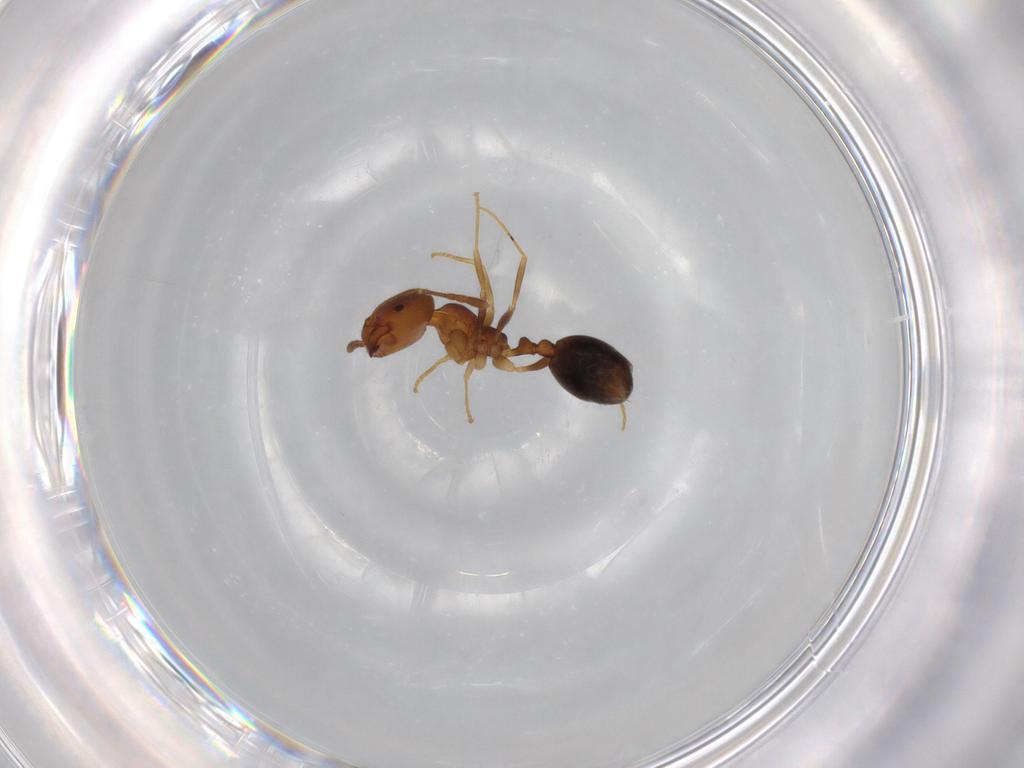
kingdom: Animalia
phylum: Arthropoda
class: Insecta
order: Hymenoptera
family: Formicidae
